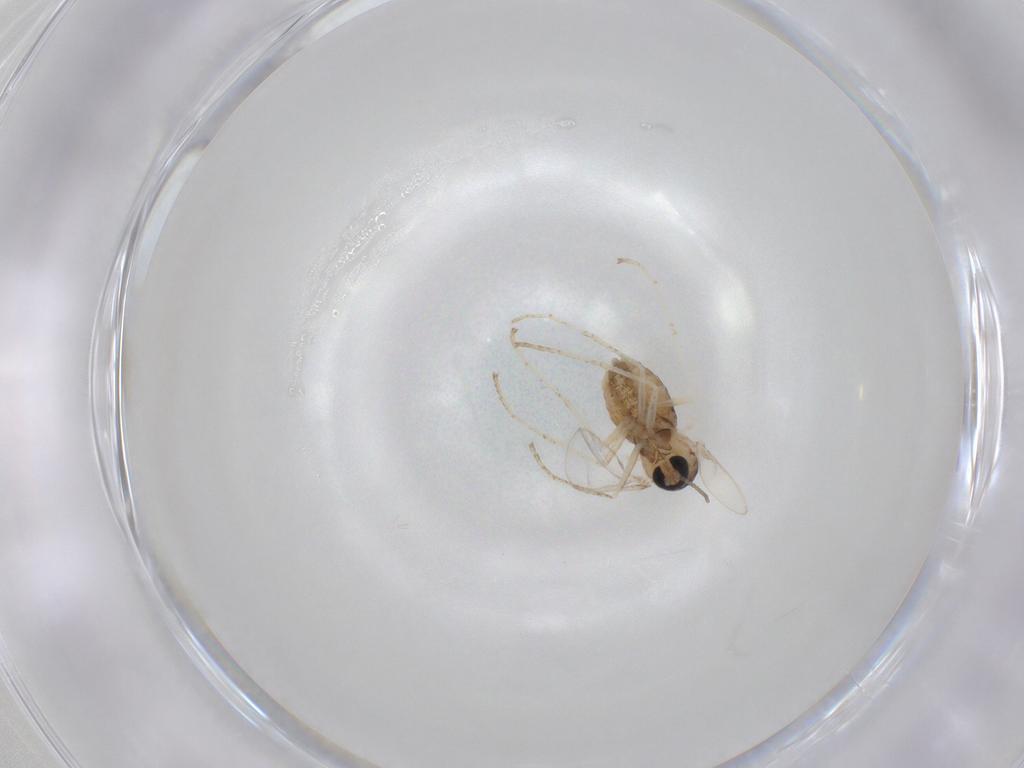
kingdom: Animalia
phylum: Arthropoda
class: Insecta
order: Diptera
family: Cecidomyiidae
